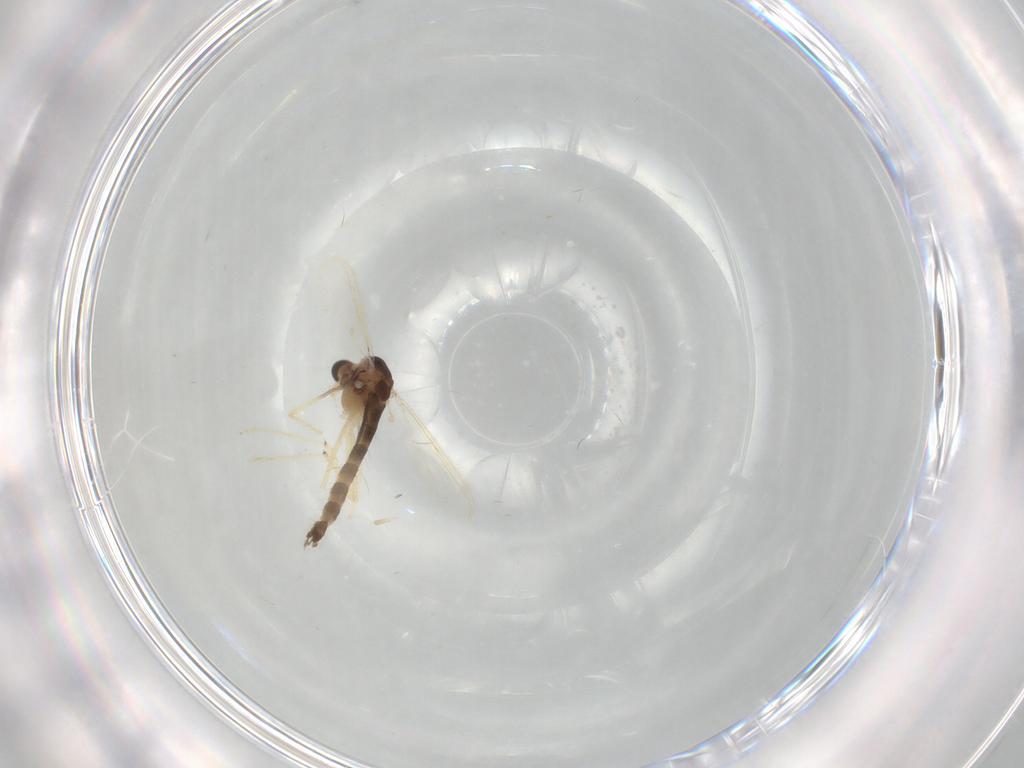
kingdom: Animalia
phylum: Arthropoda
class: Insecta
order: Diptera
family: Chironomidae
